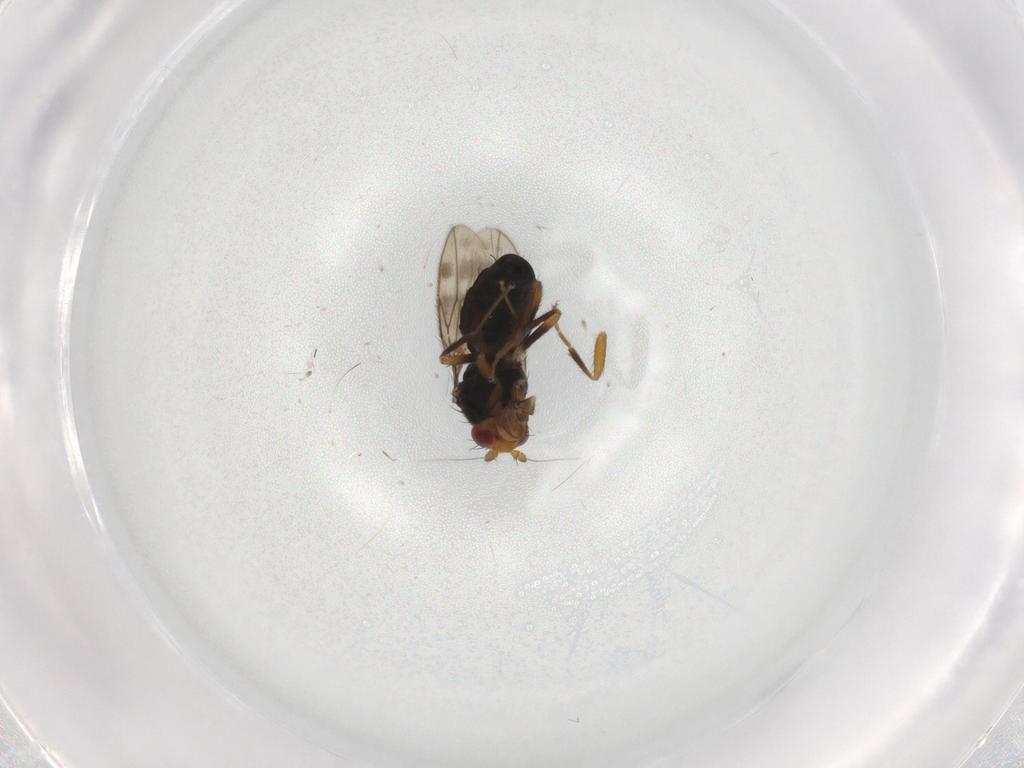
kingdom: Animalia
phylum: Arthropoda
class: Insecta
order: Diptera
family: Sphaeroceridae
